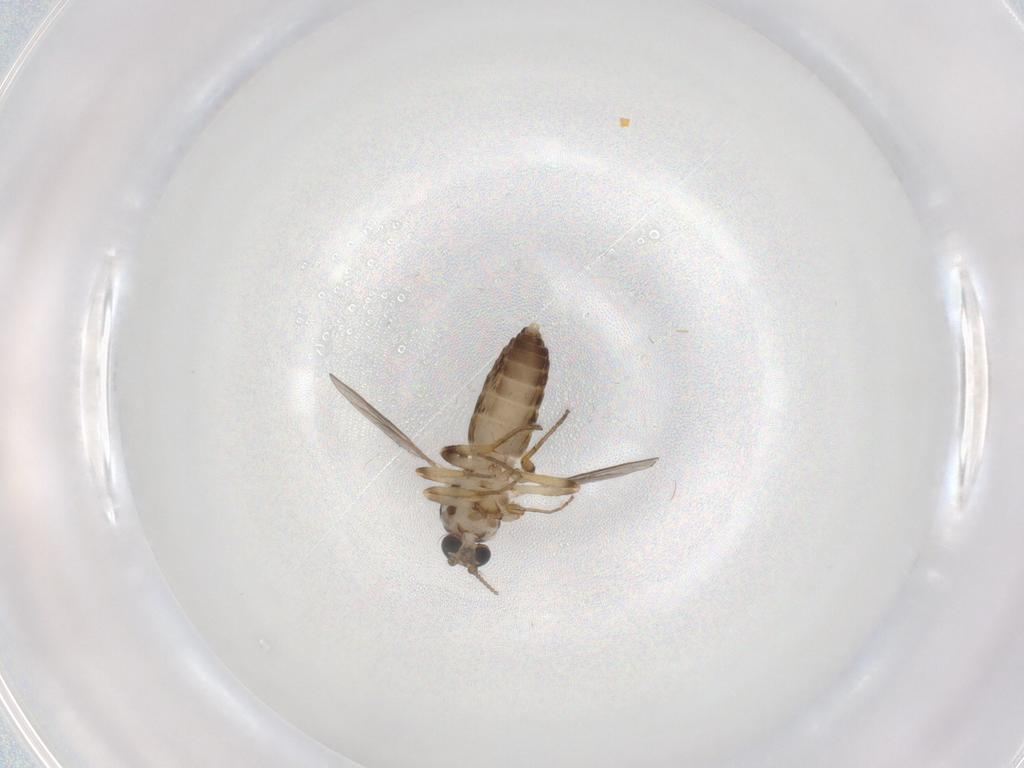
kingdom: Animalia
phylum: Arthropoda
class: Insecta
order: Diptera
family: Ceratopogonidae
